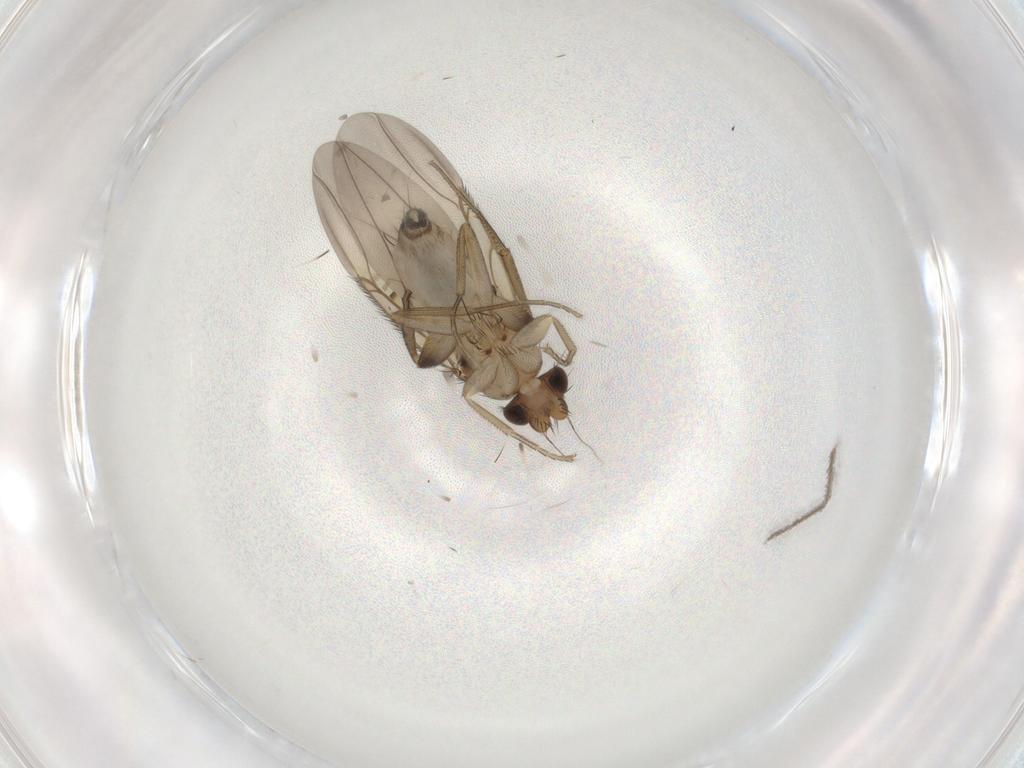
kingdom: Animalia
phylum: Arthropoda
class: Insecta
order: Diptera
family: Phoridae
